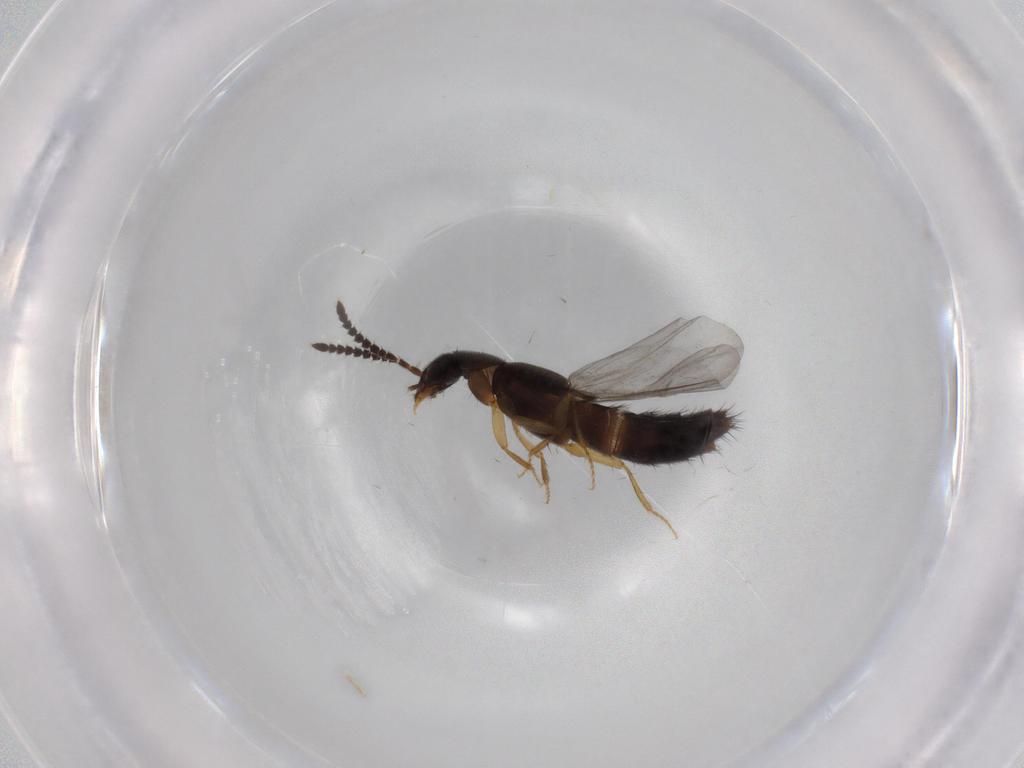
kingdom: Animalia
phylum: Arthropoda
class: Insecta
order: Coleoptera
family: Staphylinidae
